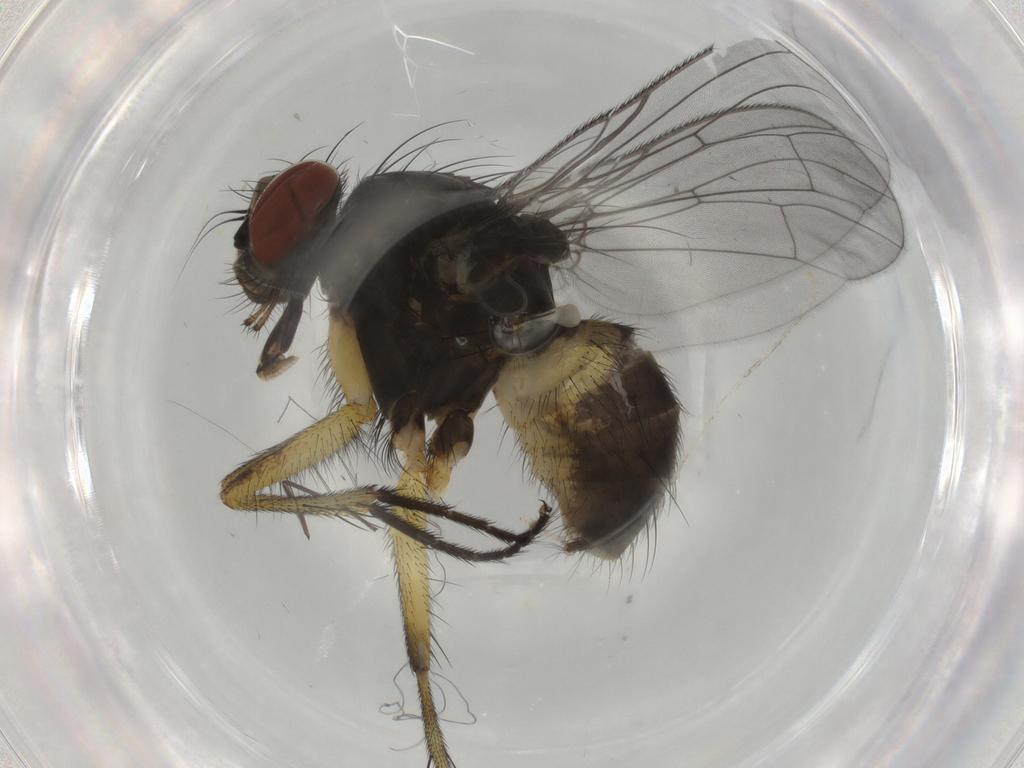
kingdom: Animalia
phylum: Arthropoda
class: Insecta
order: Diptera
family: Muscidae
